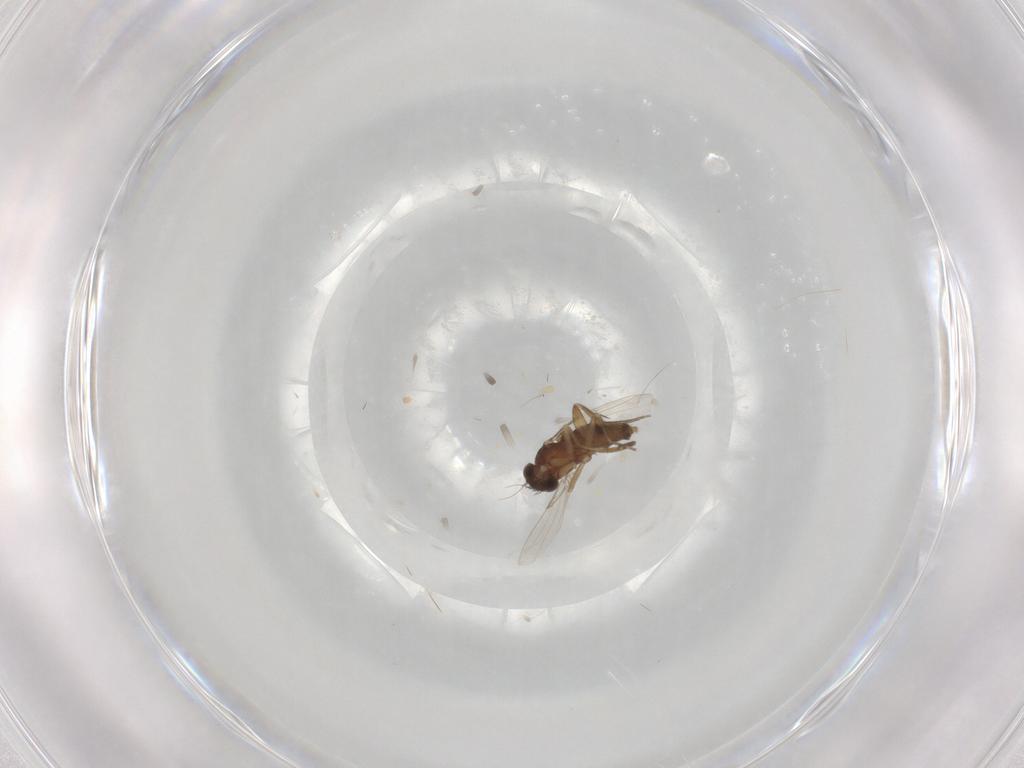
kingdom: Animalia
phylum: Arthropoda
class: Insecta
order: Diptera
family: Phoridae
